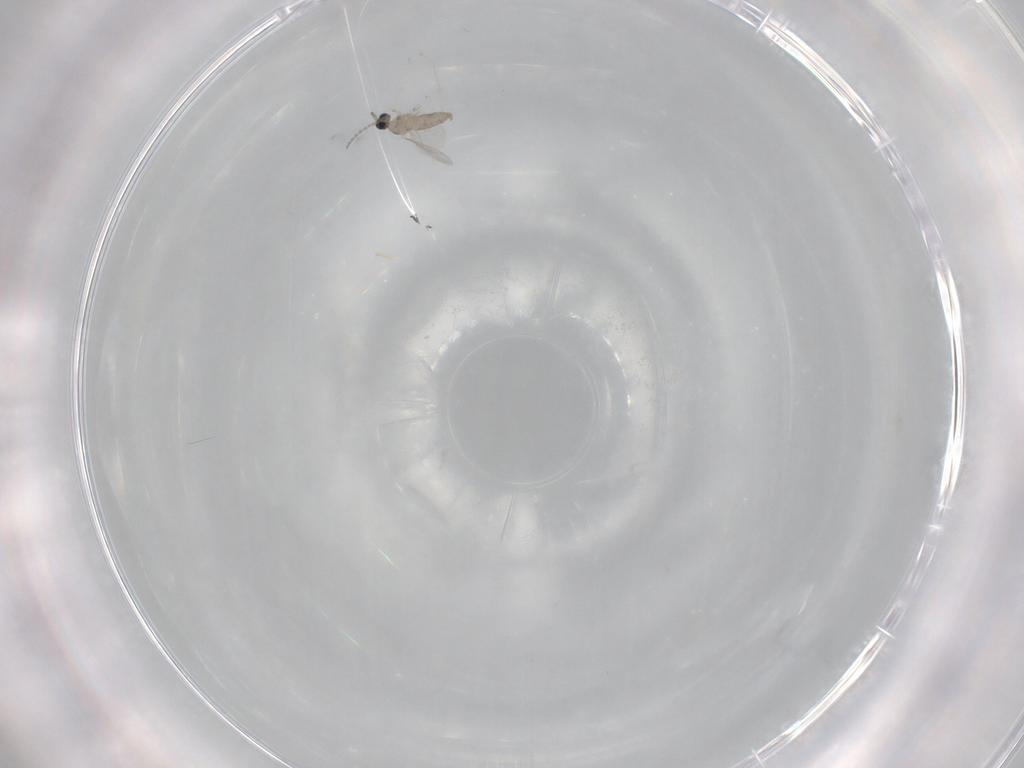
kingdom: Animalia
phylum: Arthropoda
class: Insecta
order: Diptera
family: Cecidomyiidae
